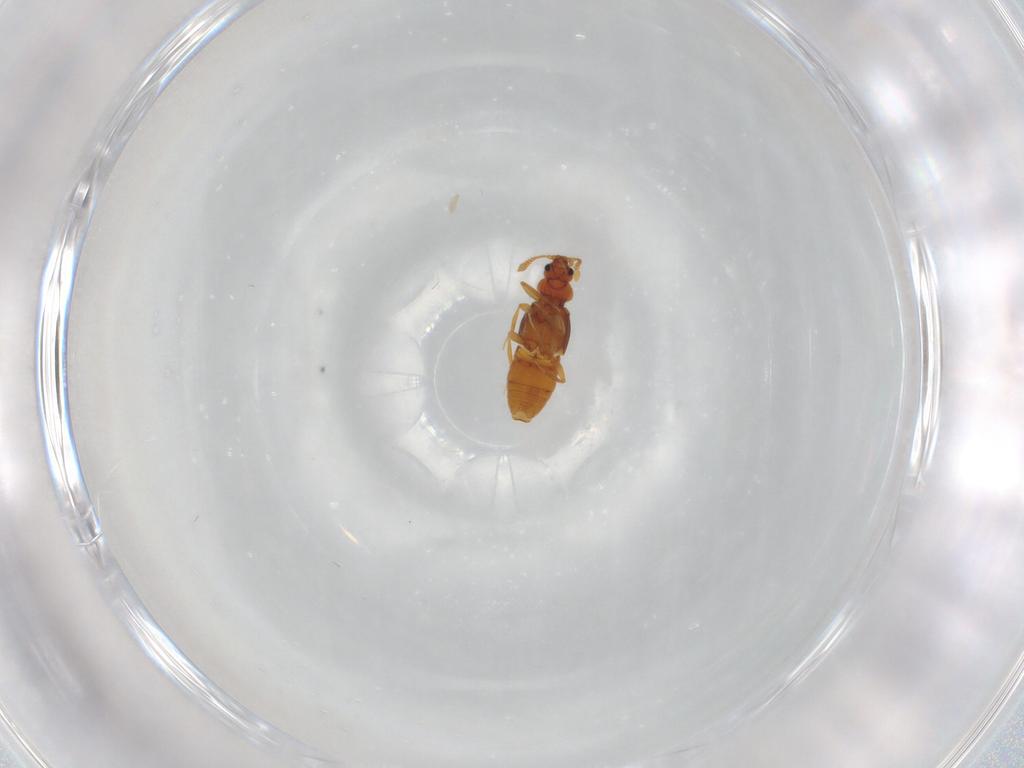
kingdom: Animalia
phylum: Arthropoda
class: Insecta
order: Coleoptera
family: Staphylinidae
